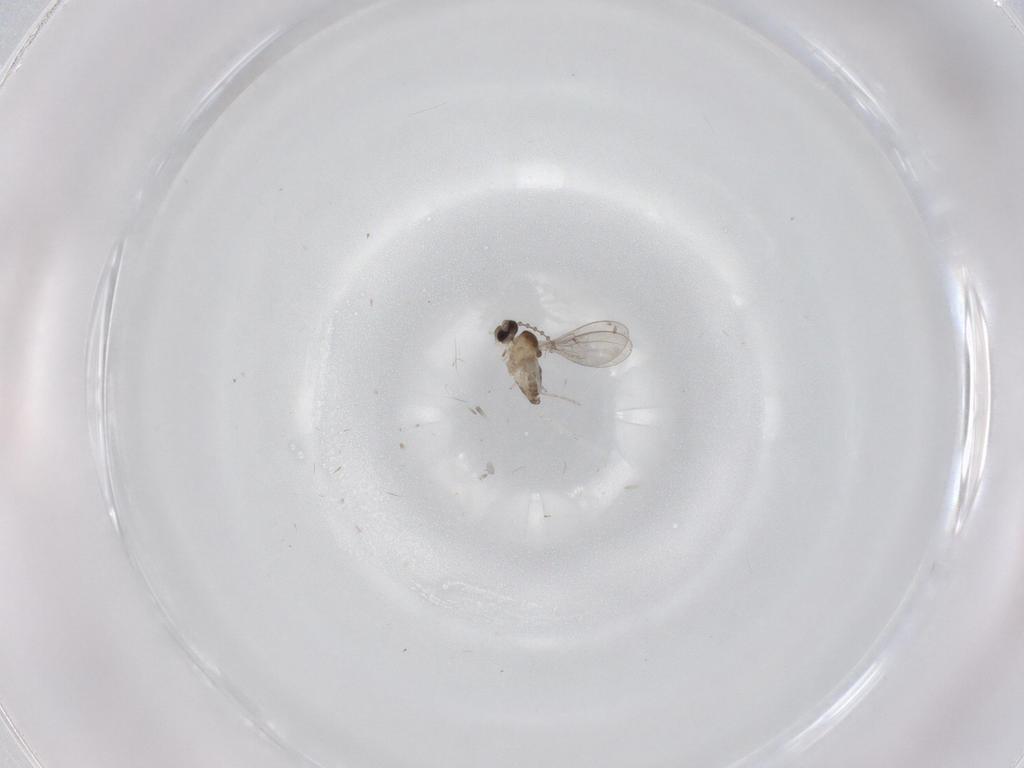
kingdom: Animalia
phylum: Arthropoda
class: Insecta
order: Diptera
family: Cecidomyiidae
